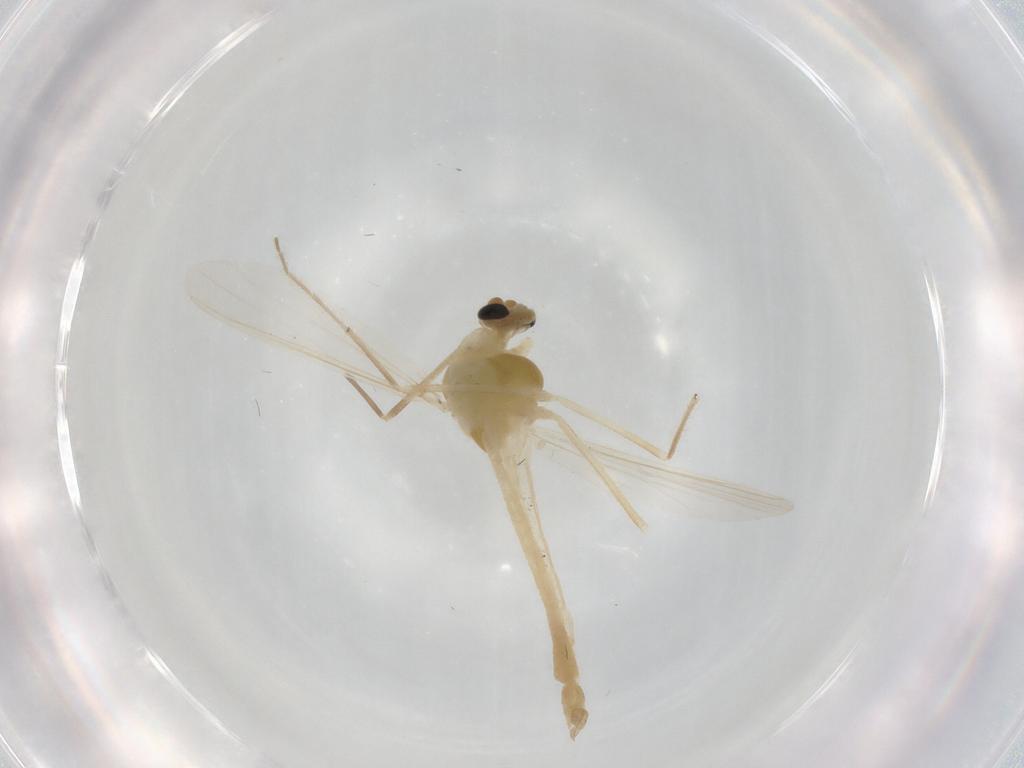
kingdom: Animalia
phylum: Arthropoda
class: Insecta
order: Diptera
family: Chironomidae
